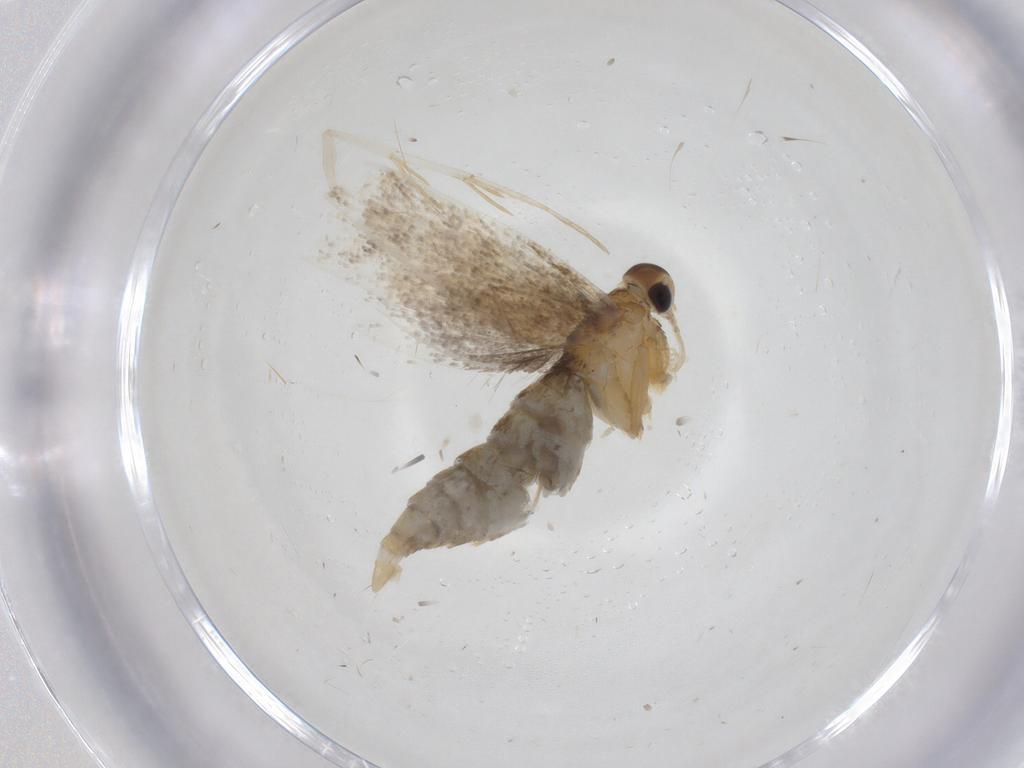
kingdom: Animalia
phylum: Arthropoda
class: Insecta
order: Lepidoptera
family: Oecophoridae
